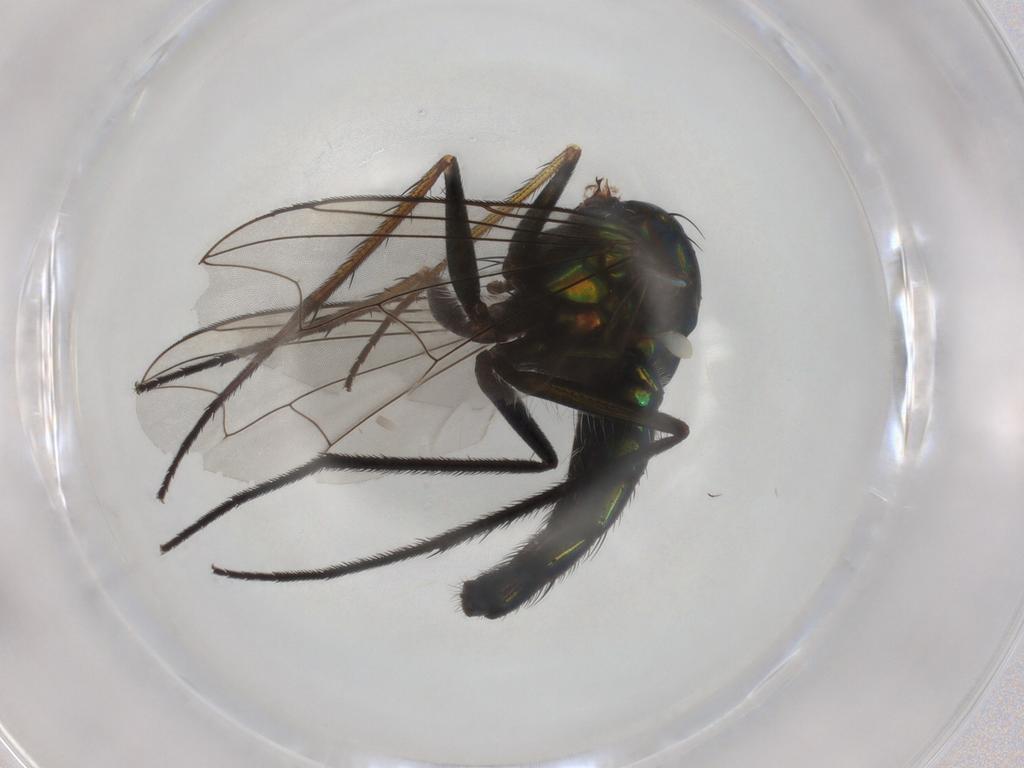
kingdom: Animalia
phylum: Arthropoda
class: Insecta
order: Diptera
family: Dolichopodidae
